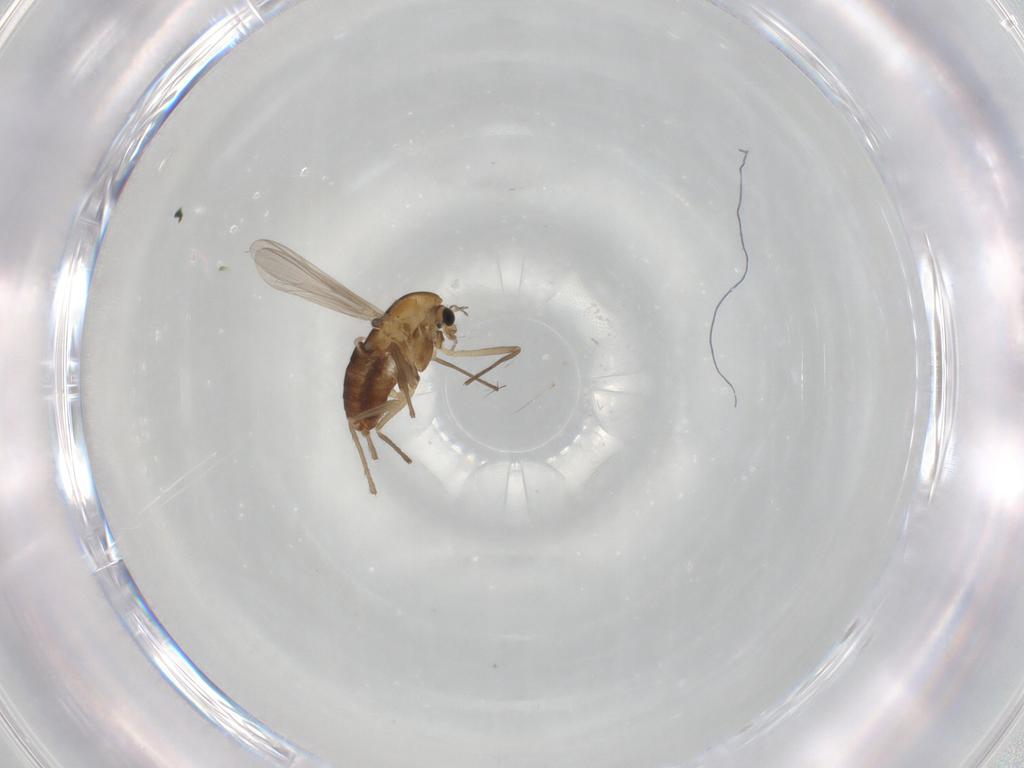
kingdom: Animalia
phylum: Arthropoda
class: Insecta
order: Diptera
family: Chironomidae
